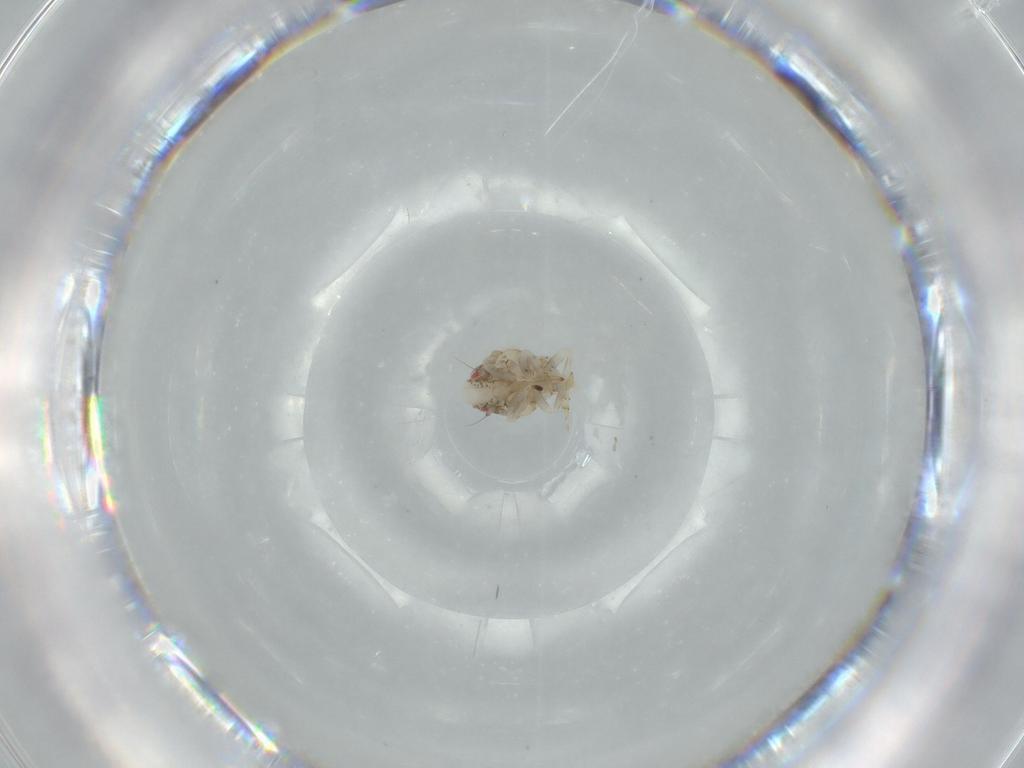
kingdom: Animalia
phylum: Arthropoda
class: Insecta
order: Hemiptera
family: Acanaloniidae
